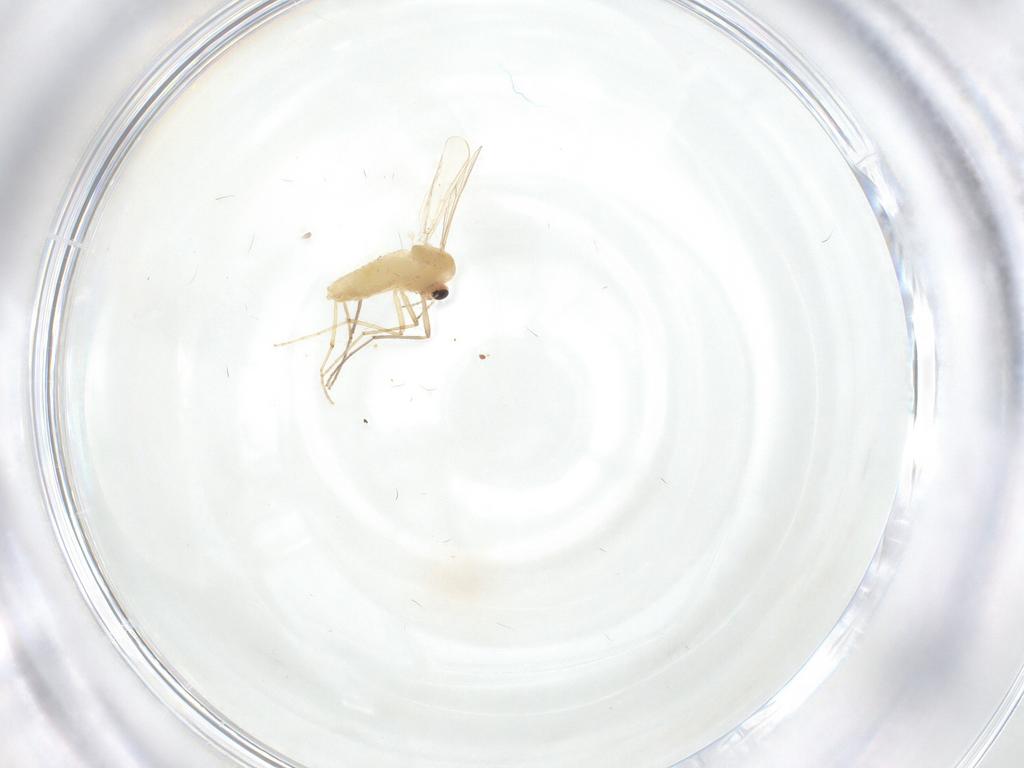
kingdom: Animalia
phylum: Arthropoda
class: Insecta
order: Diptera
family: Chironomidae
